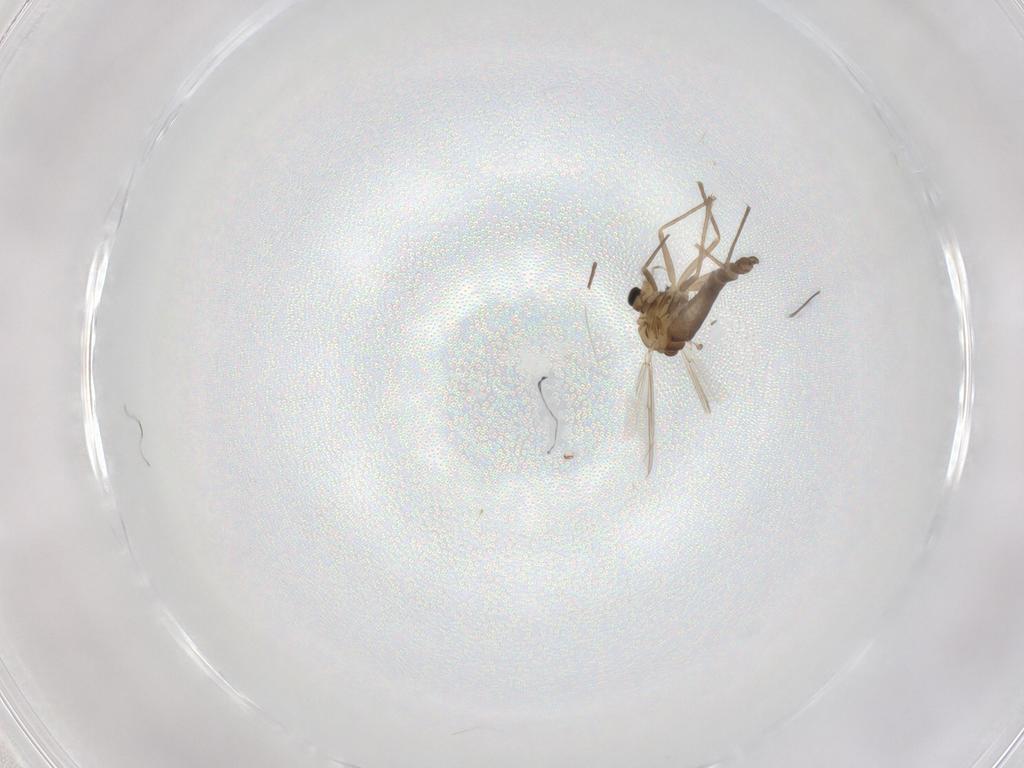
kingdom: Animalia
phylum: Arthropoda
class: Insecta
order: Diptera
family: Chironomidae
